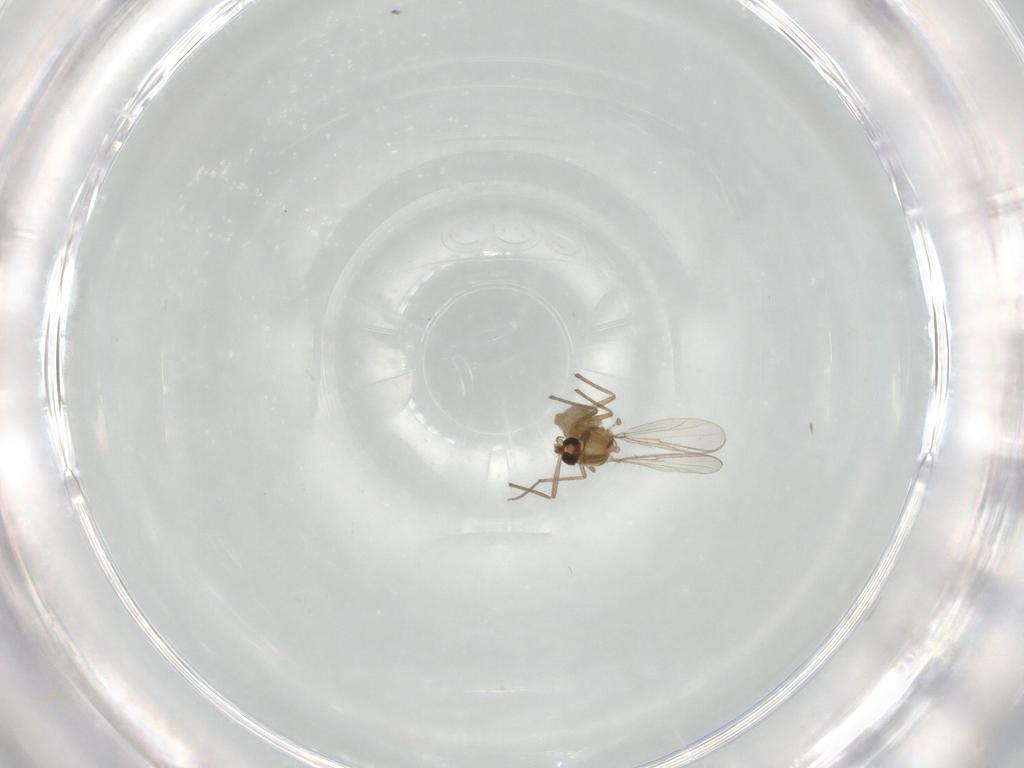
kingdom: Animalia
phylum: Arthropoda
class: Insecta
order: Diptera
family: Chironomidae
